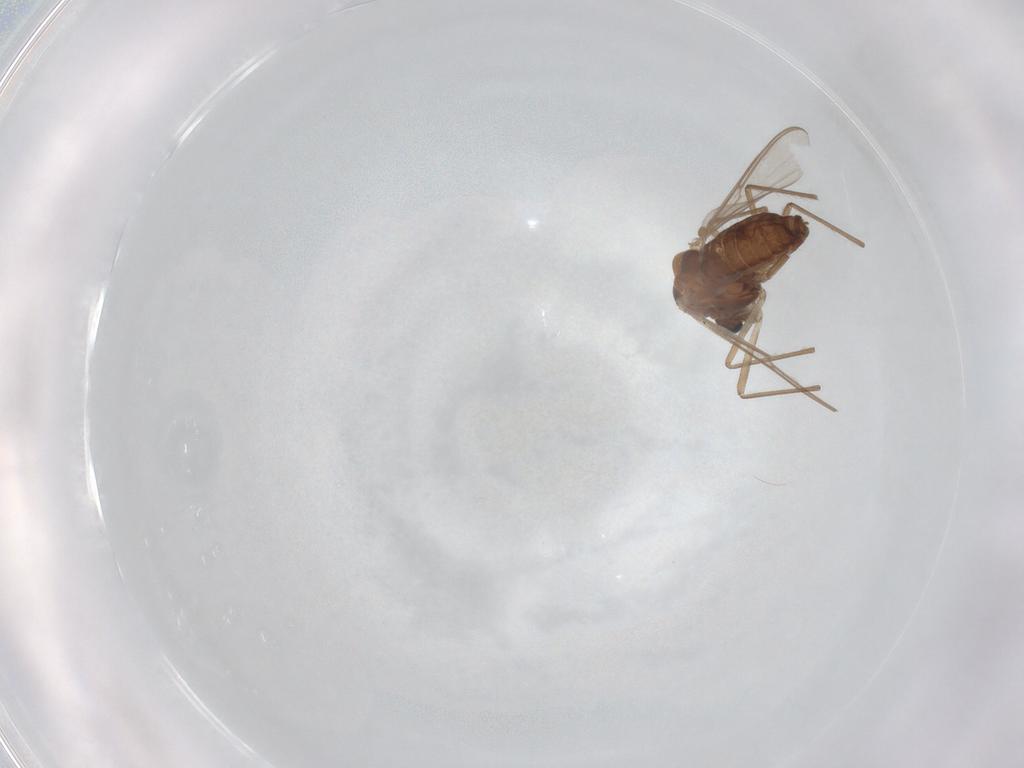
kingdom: Animalia
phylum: Arthropoda
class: Insecta
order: Diptera
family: Chironomidae
